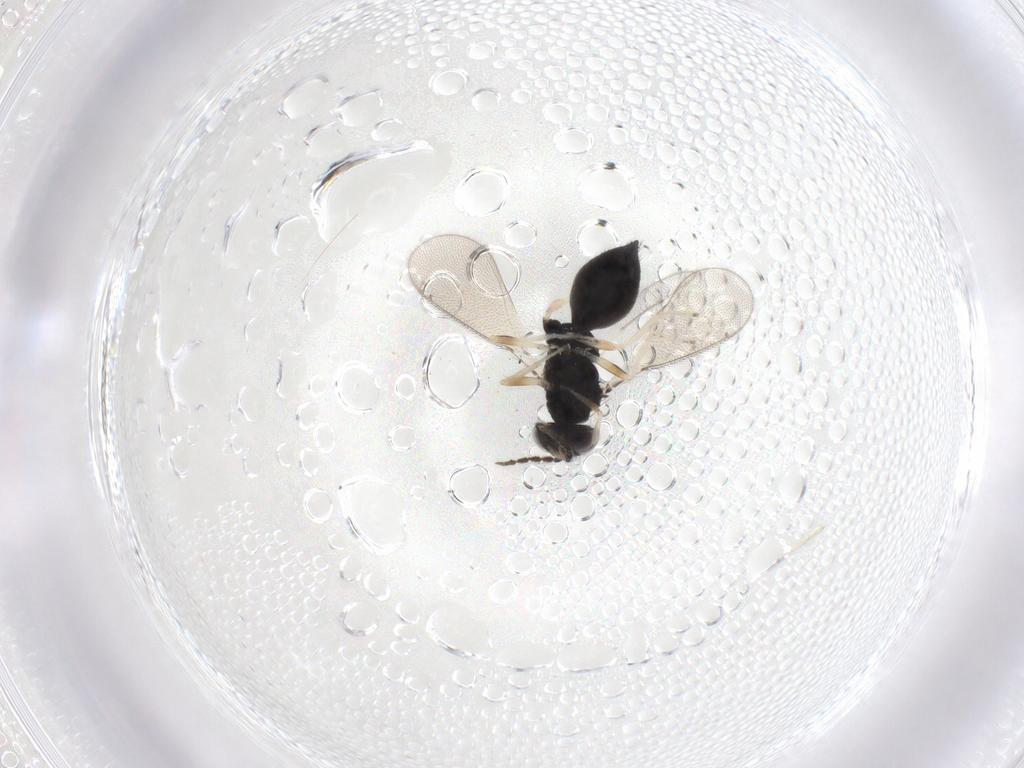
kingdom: Animalia
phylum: Arthropoda
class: Insecta
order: Hymenoptera
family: Eulophidae
